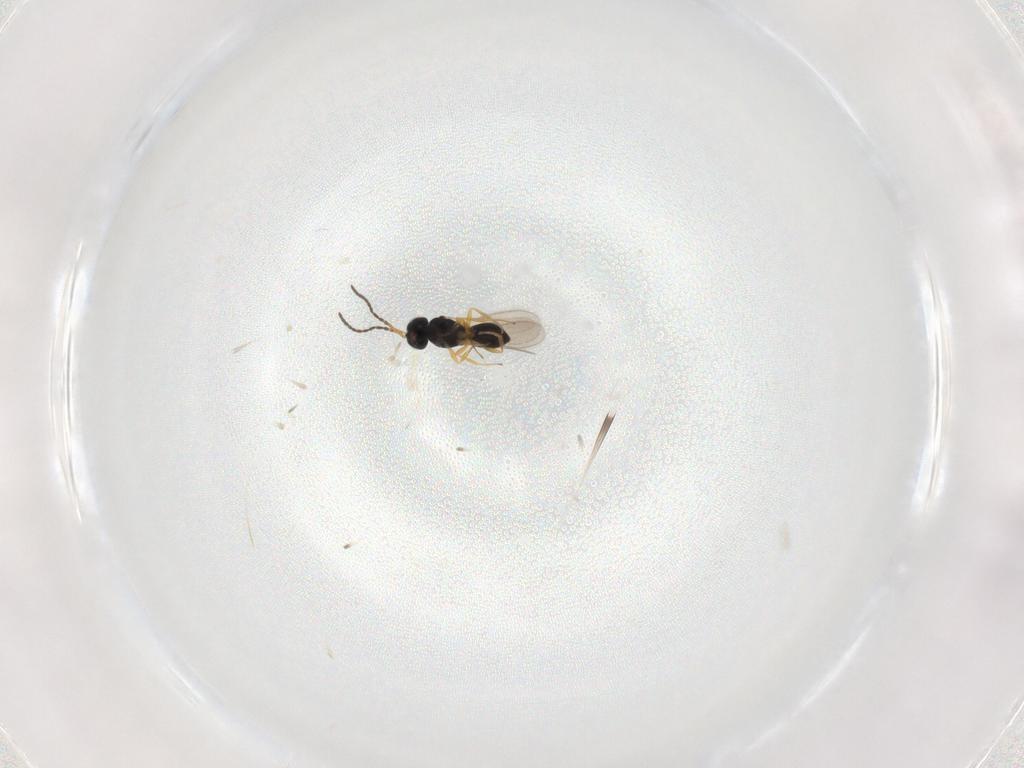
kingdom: Animalia
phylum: Arthropoda
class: Insecta
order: Hymenoptera
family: Scelionidae
